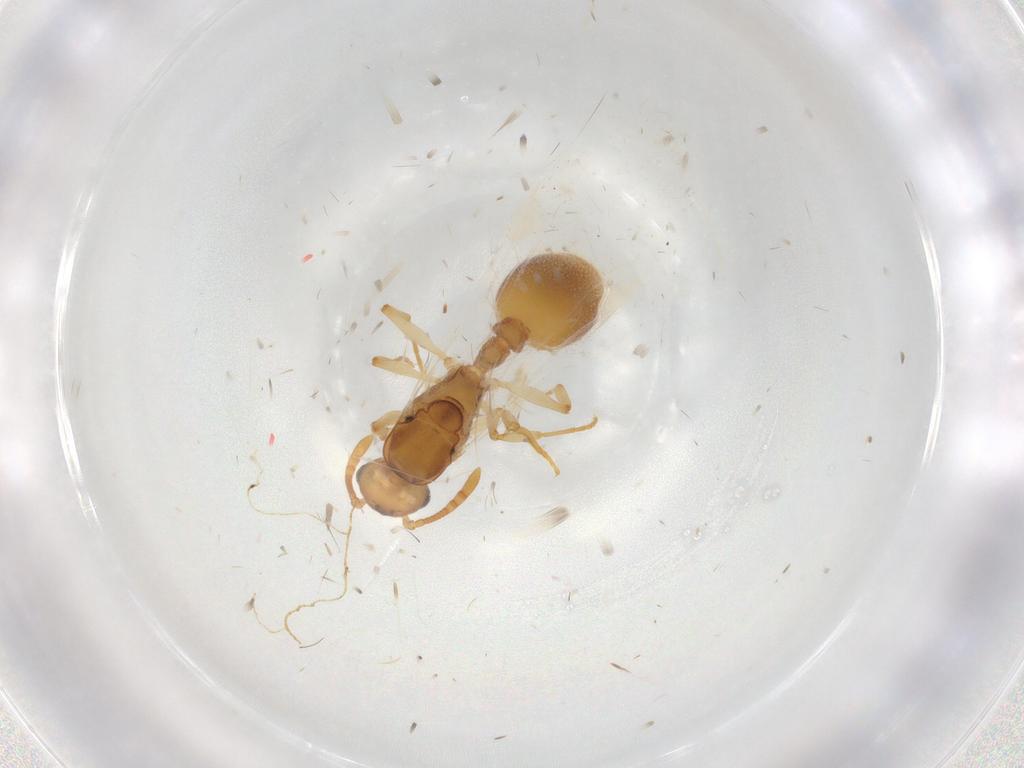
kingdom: Animalia
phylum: Arthropoda
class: Insecta
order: Hymenoptera
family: Formicidae
